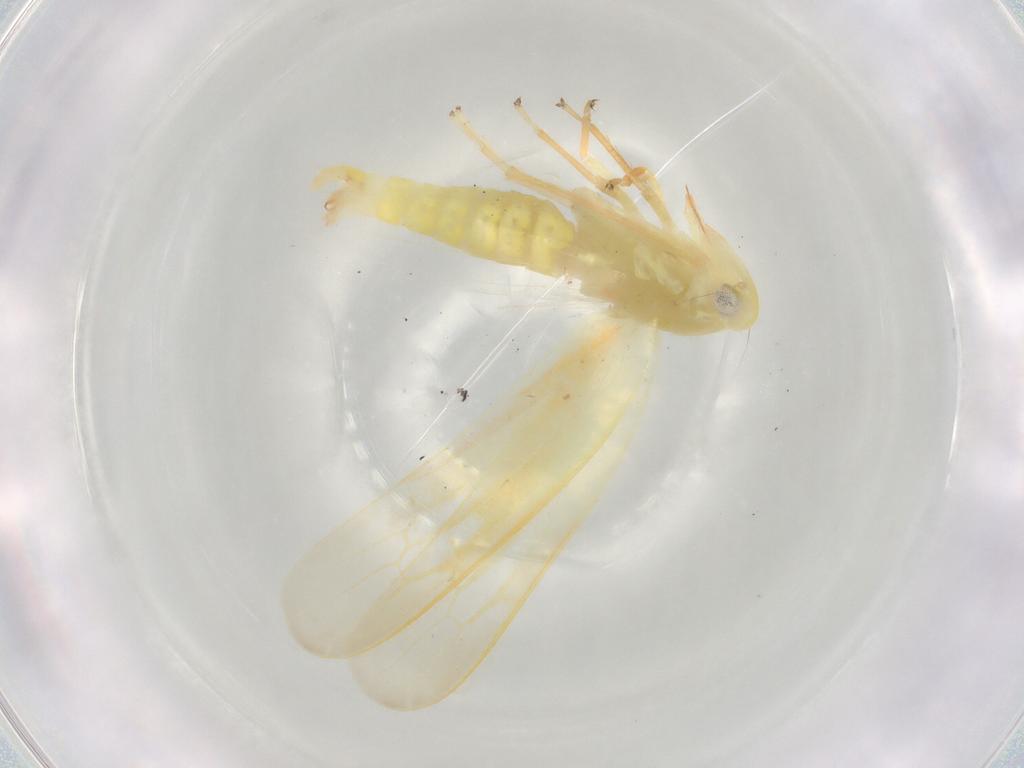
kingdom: Animalia
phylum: Arthropoda
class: Insecta
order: Hemiptera
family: Cicadellidae
